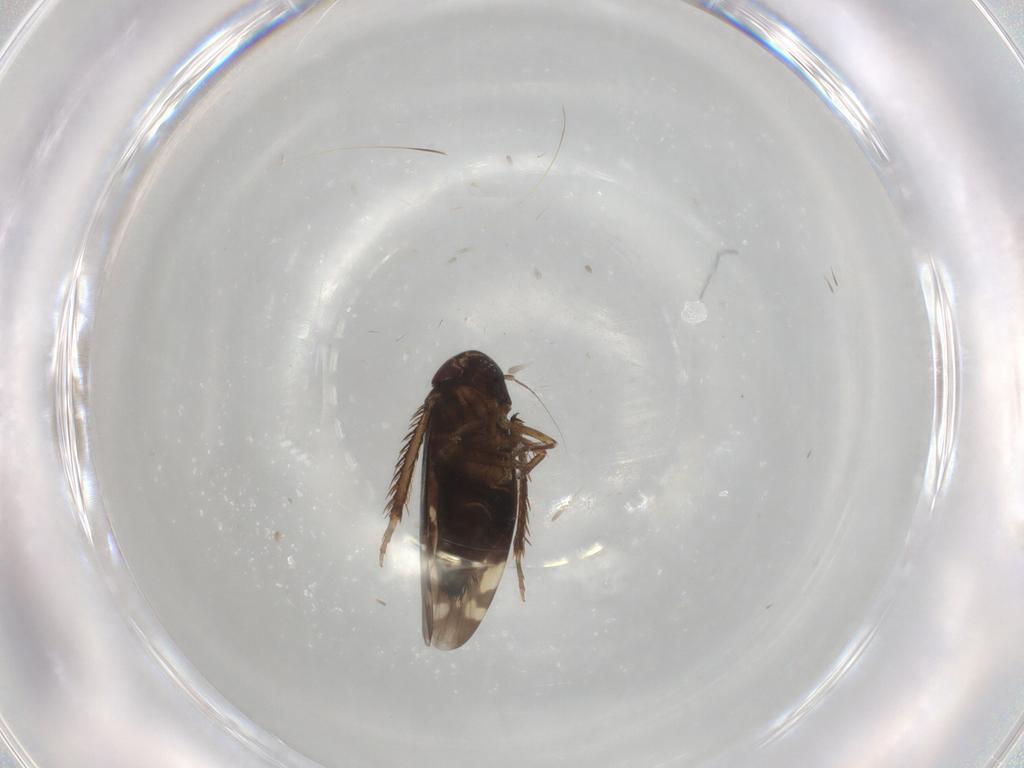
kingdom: Animalia
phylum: Arthropoda
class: Insecta
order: Hemiptera
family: Cicadellidae
